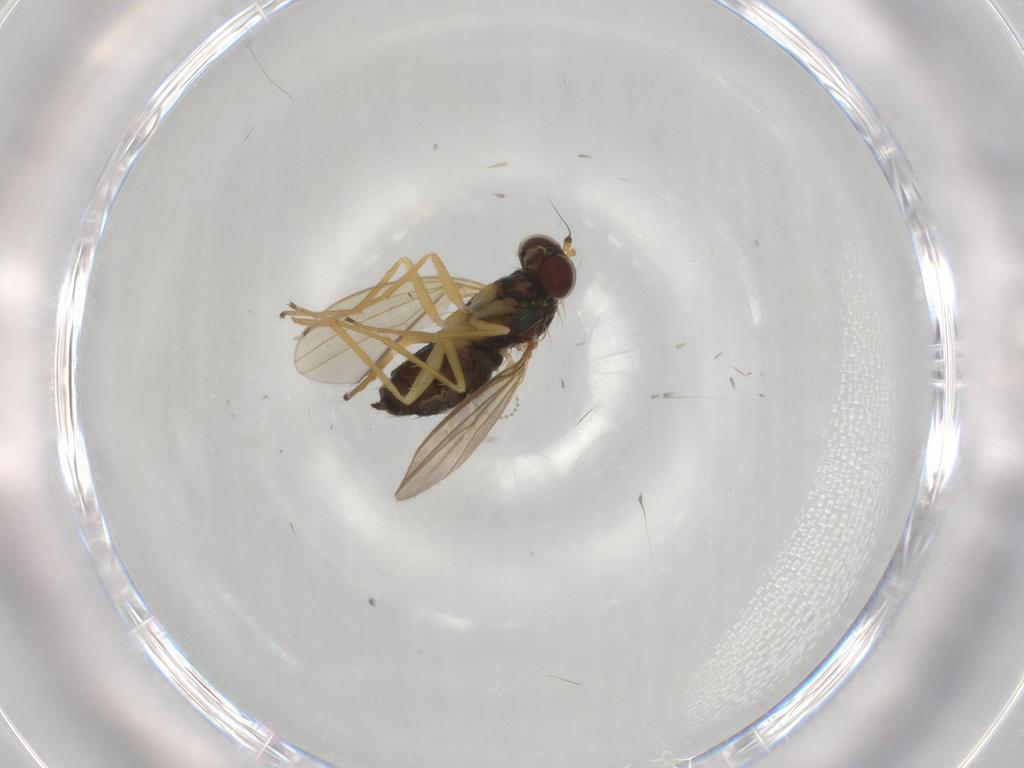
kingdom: Animalia
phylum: Arthropoda
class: Insecta
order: Diptera
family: Dolichopodidae
